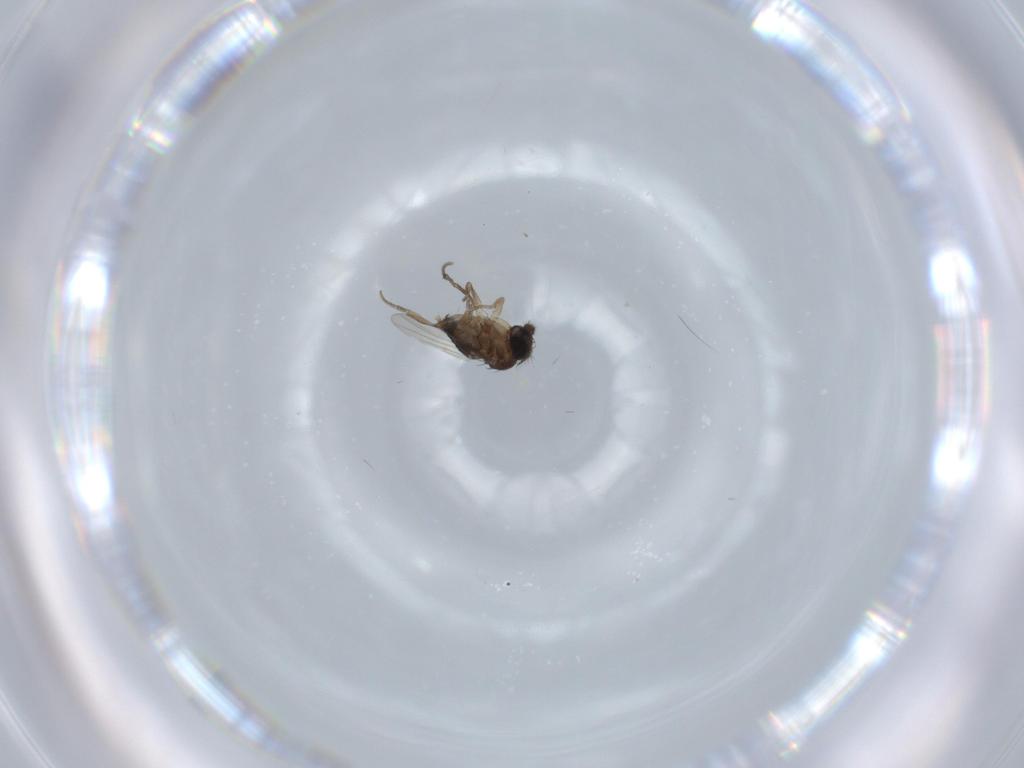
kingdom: Animalia
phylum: Arthropoda
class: Insecta
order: Diptera
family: Phoridae
